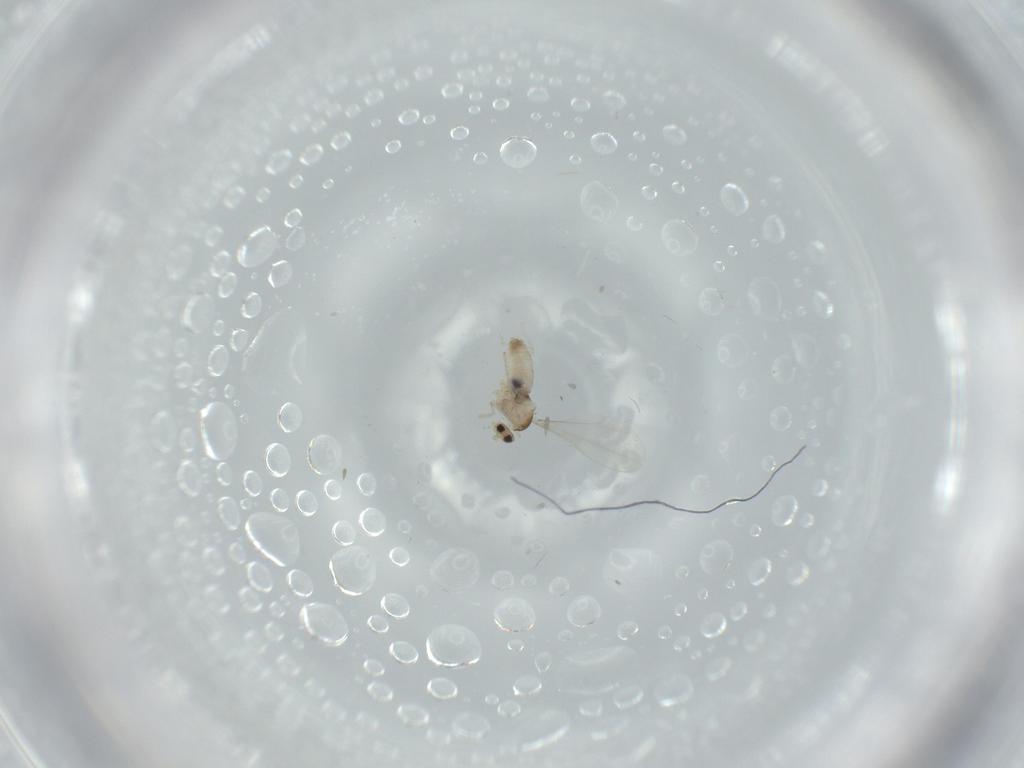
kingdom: Animalia
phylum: Arthropoda
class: Insecta
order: Diptera
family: Cecidomyiidae
